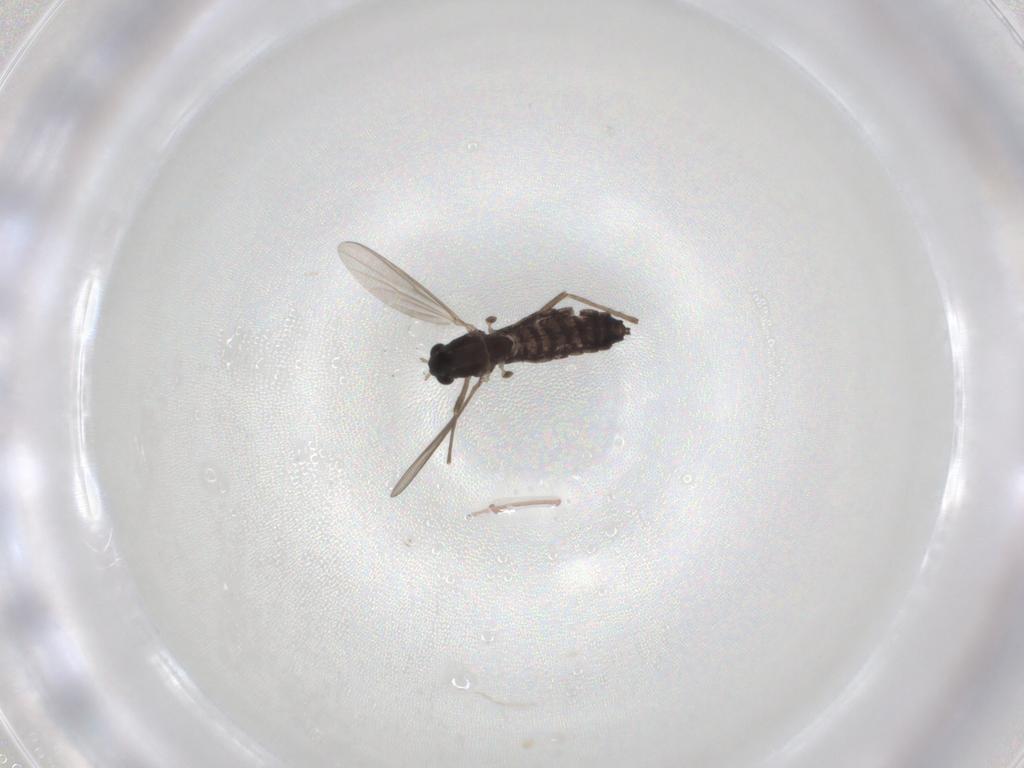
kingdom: Animalia
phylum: Arthropoda
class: Insecta
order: Diptera
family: Chironomidae
